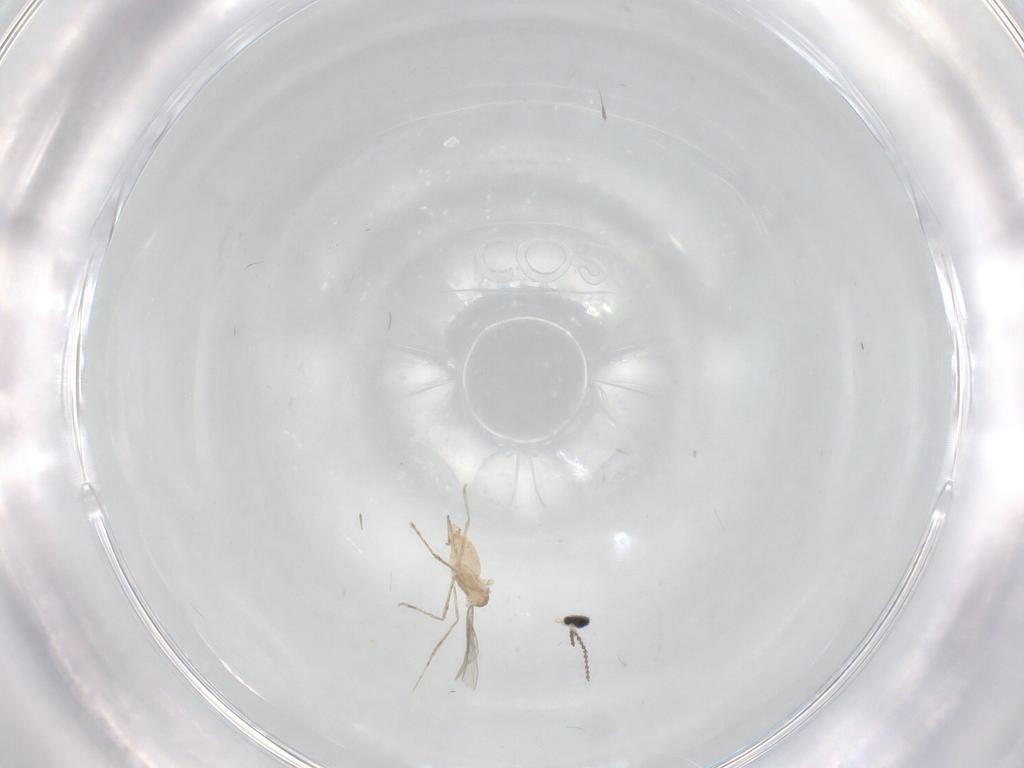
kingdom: Animalia
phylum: Arthropoda
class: Insecta
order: Diptera
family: Cecidomyiidae
